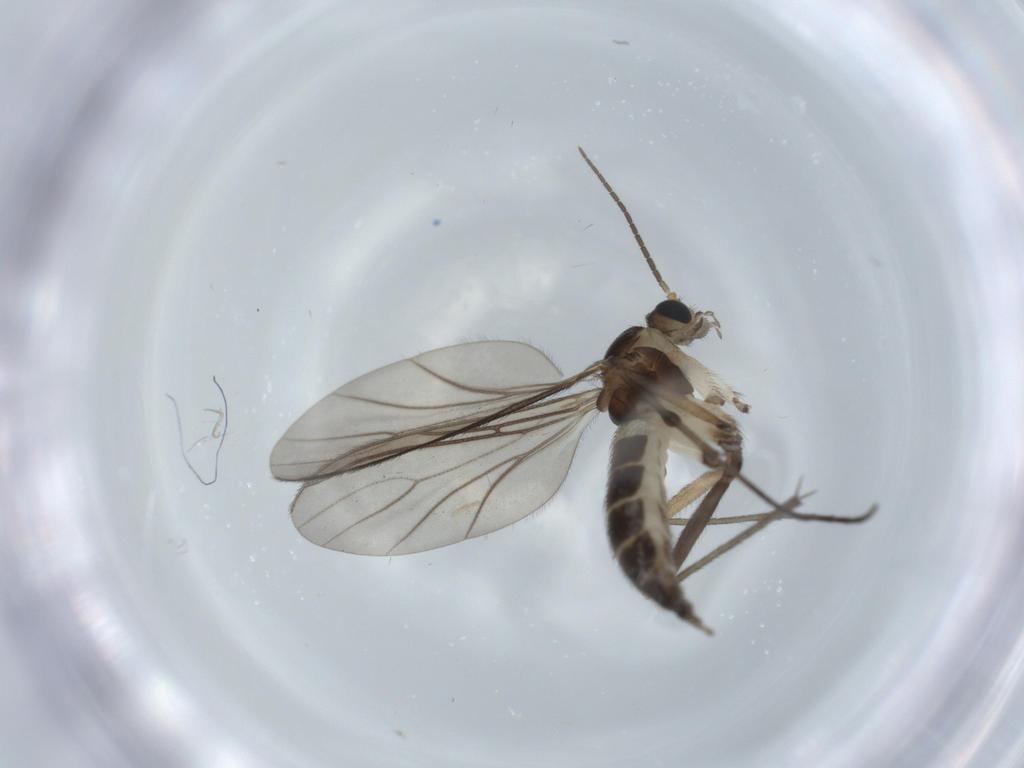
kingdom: Animalia
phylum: Arthropoda
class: Insecta
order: Diptera
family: Sciaridae
